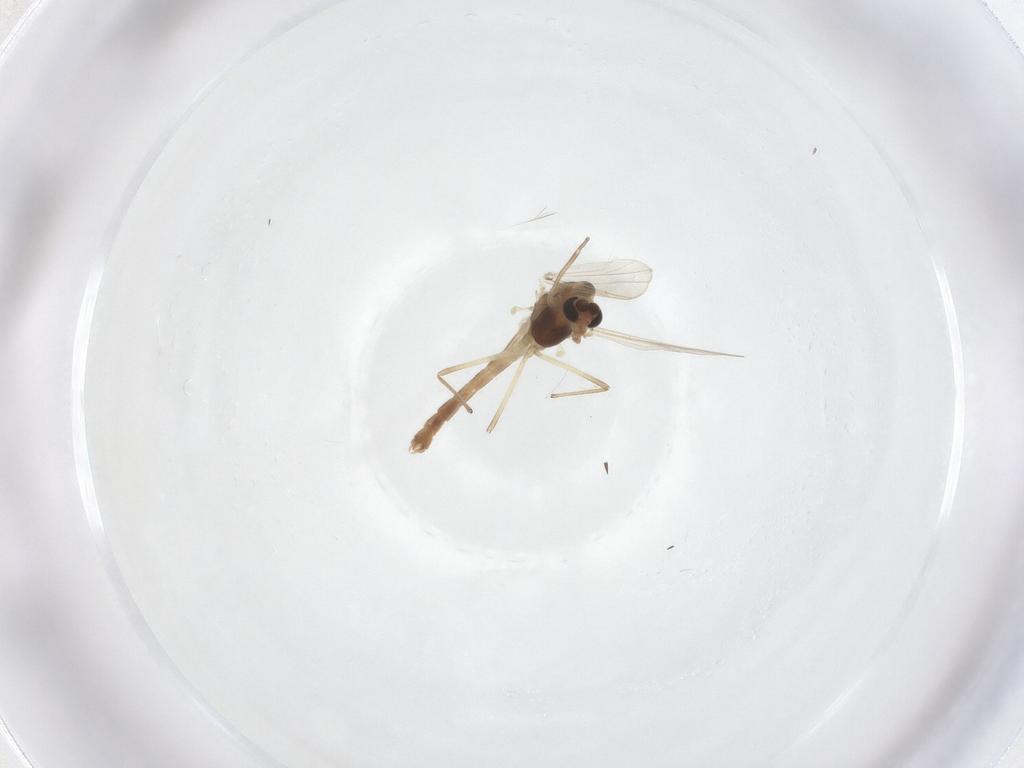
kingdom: Animalia
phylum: Arthropoda
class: Insecta
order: Diptera
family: Chironomidae
